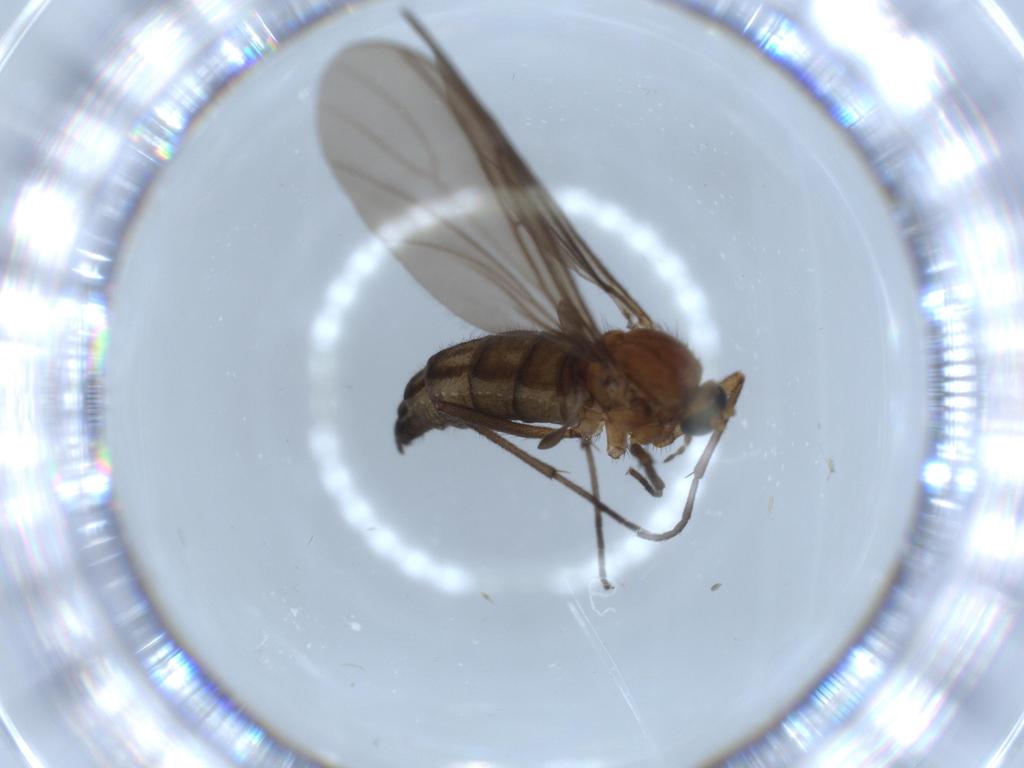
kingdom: Animalia
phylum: Arthropoda
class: Insecta
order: Diptera
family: Sciaridae
